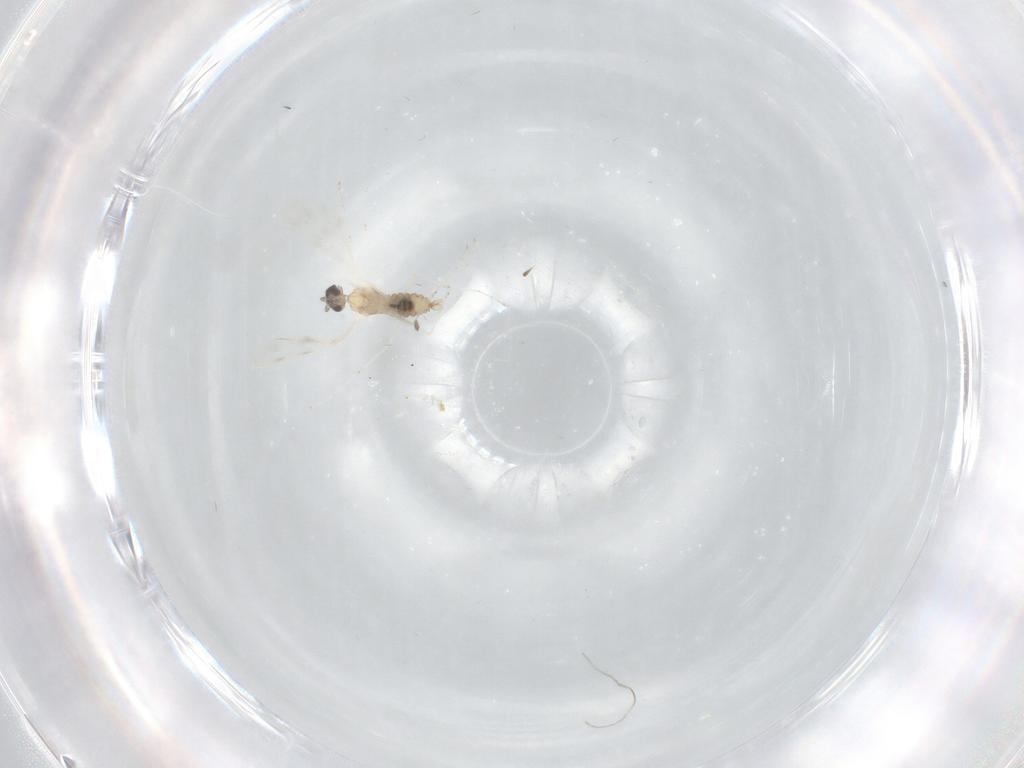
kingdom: Animalia
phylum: Arthropoda
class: Insecta
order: Diptera
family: Cecidomyiidae
